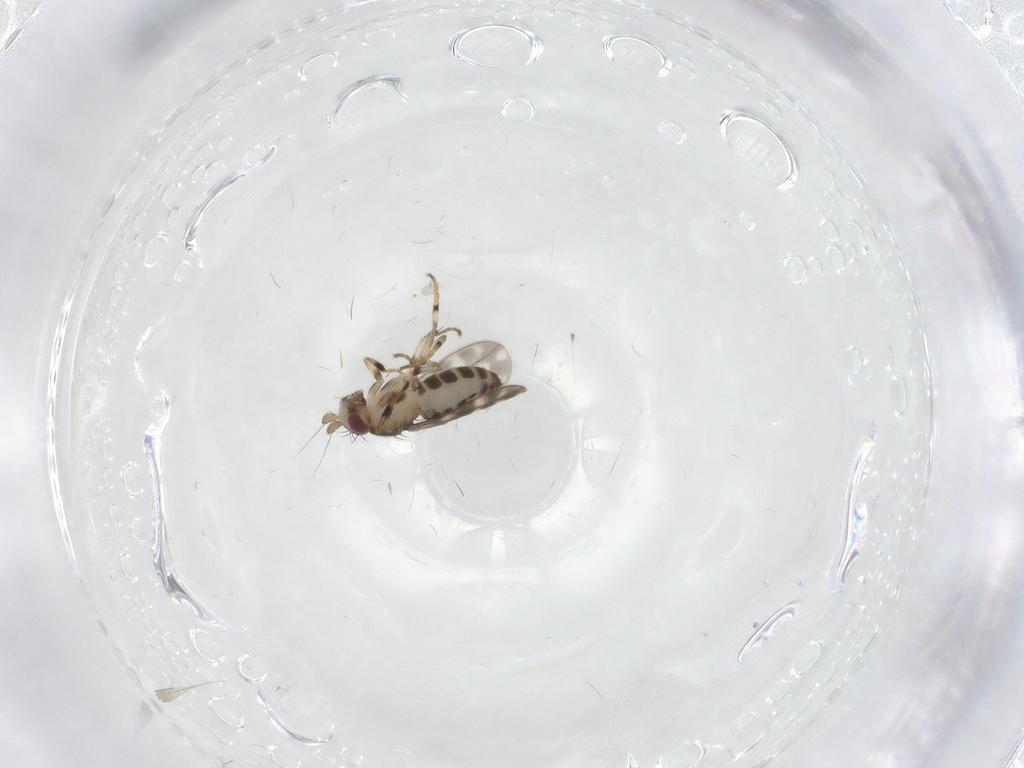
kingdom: Animalia
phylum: Arthropoda
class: Insecta
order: Diptera
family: Sphaeroceridae
